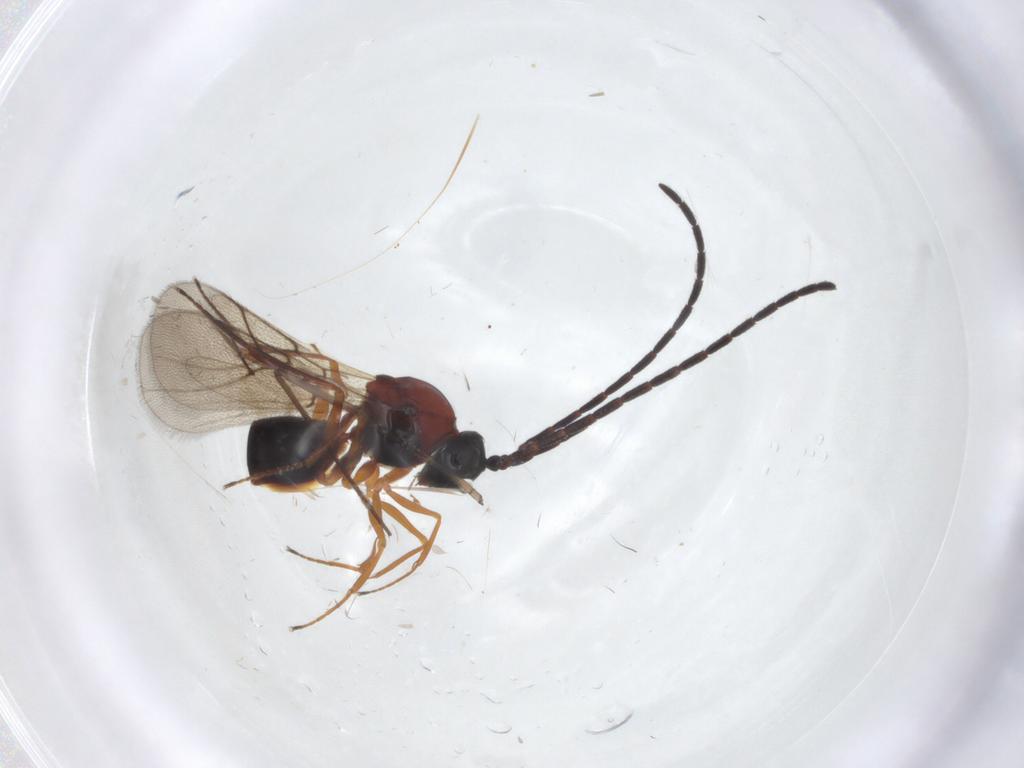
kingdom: Animalia
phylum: Arthropoda
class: Insecta
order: Hymenoptera
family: Figitidae
